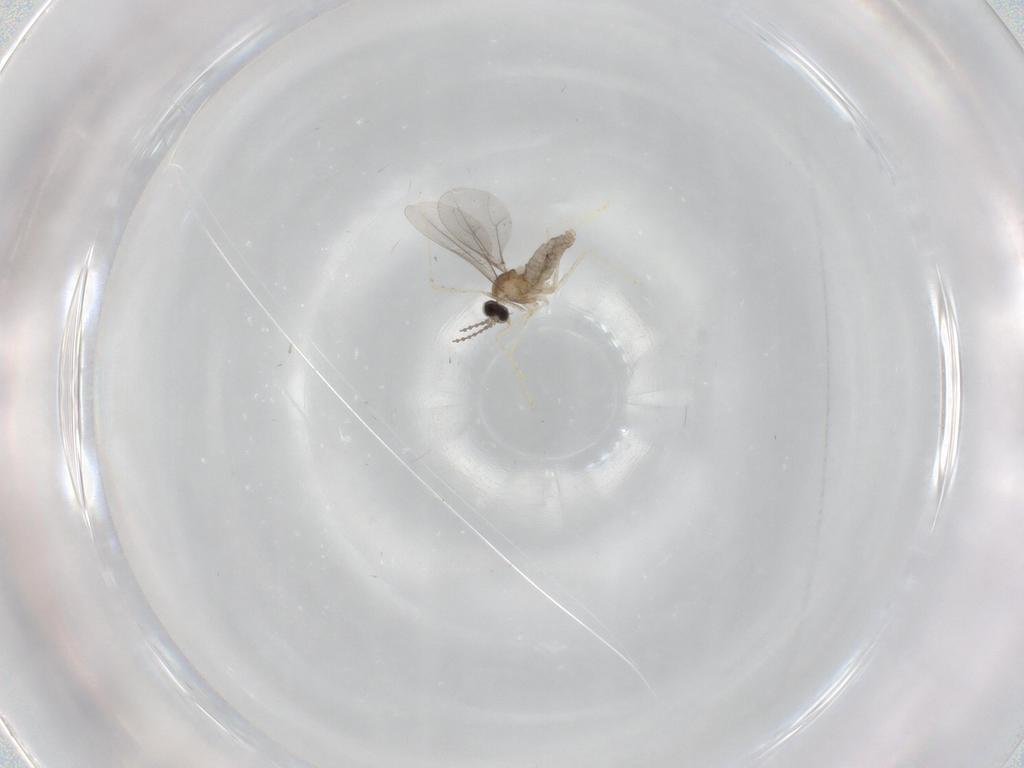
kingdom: Animalia
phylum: Arthropoda
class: Insecta
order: Diptera
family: Cecidomyiidae
